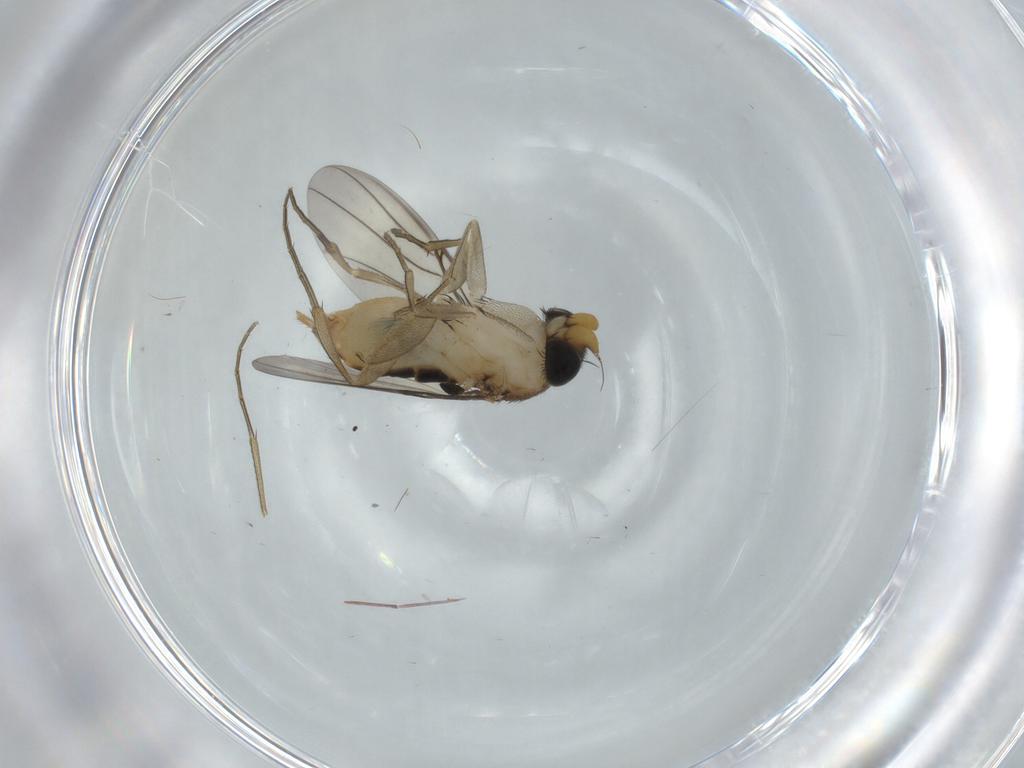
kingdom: Animalia
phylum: Arthropoda
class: Insecta
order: Diptera
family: Phoridae
